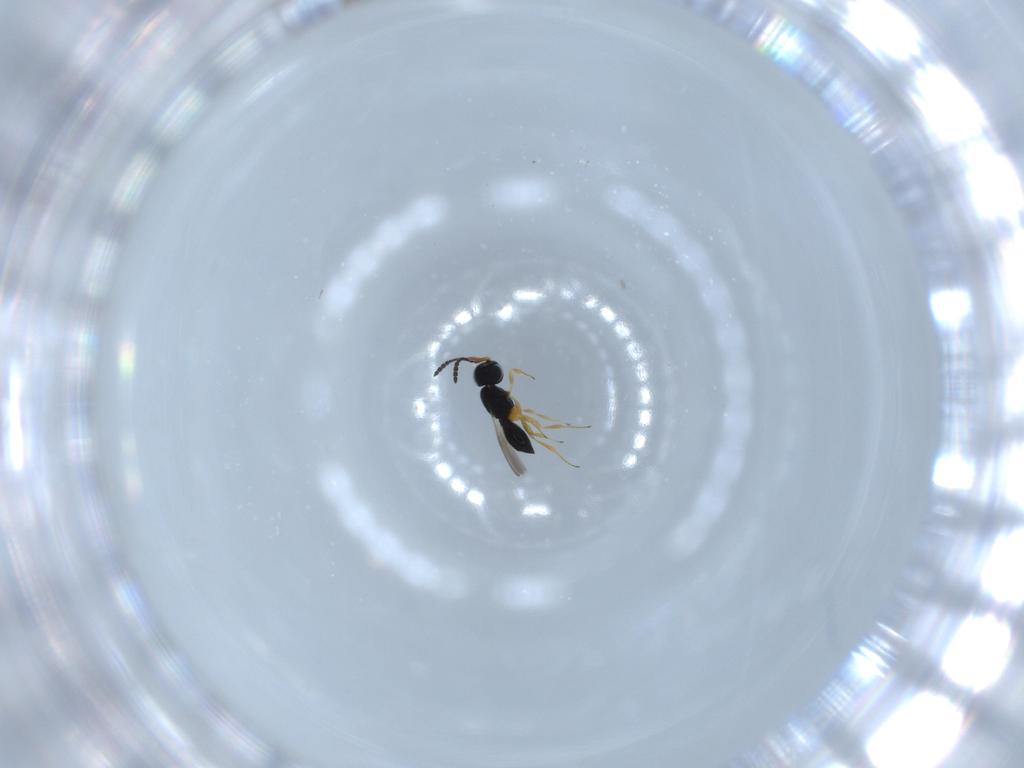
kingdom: Animalia
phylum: Arthropoda
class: Insecta
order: Hymenoptera
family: Scelionidae
